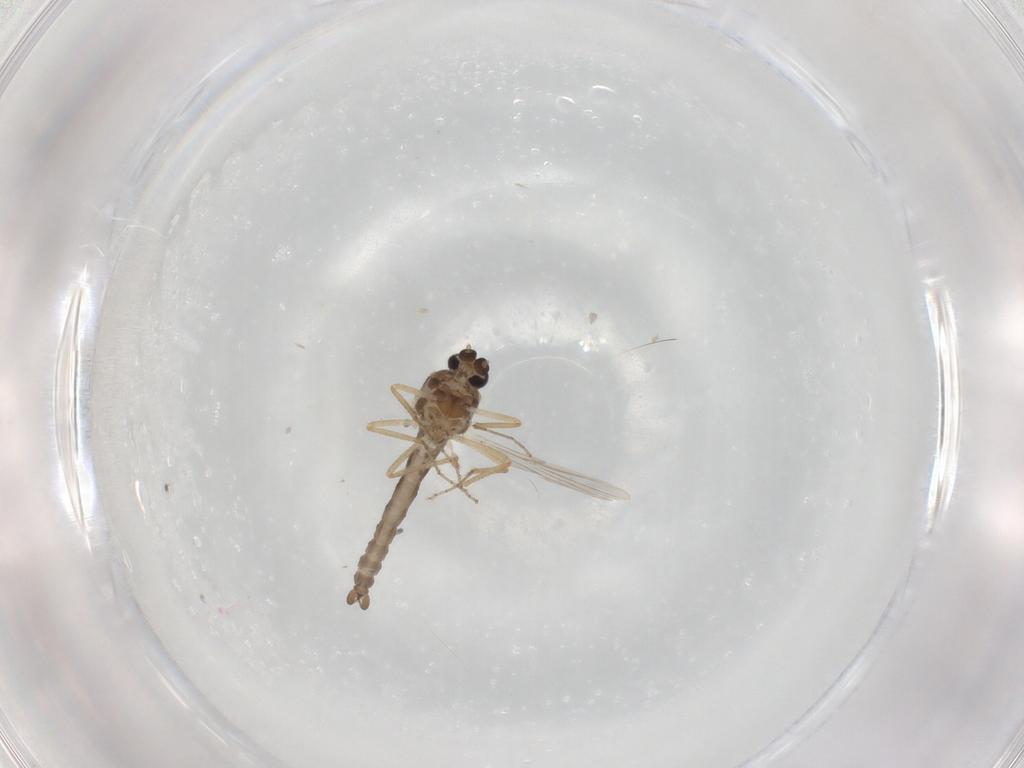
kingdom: Animalia
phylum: Arthropoda
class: Insecta
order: Diptera
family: Ceratopogonidae
